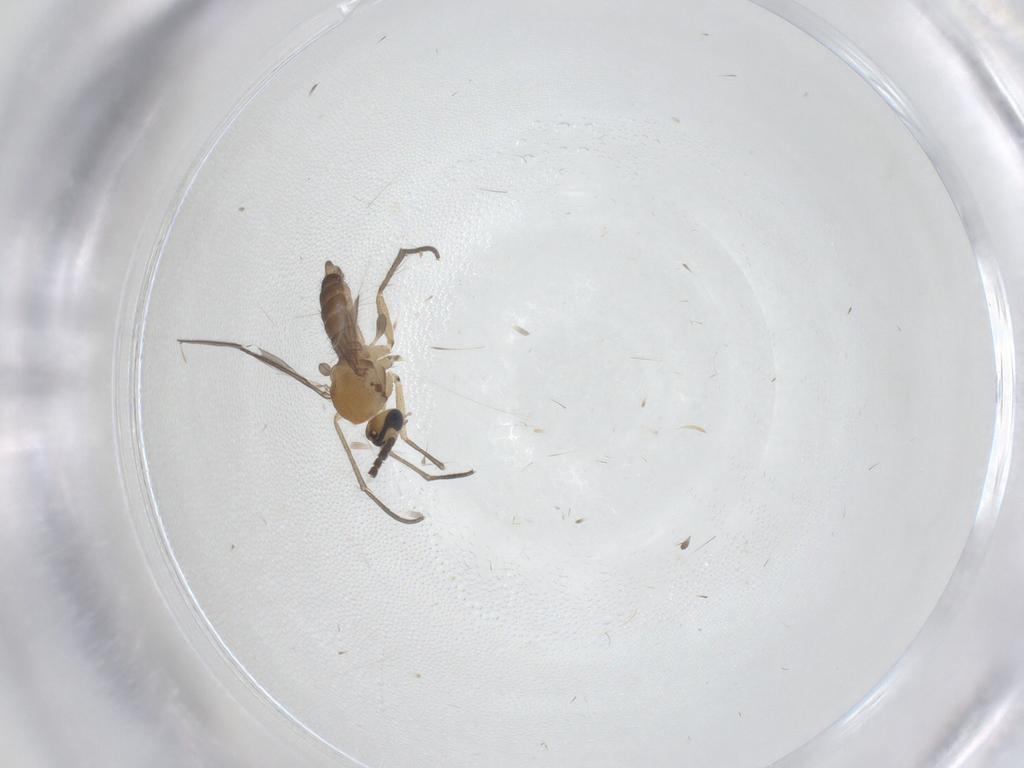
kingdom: Animalia
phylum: Arthropoda
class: Insecta
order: Diptera
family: Sciaridae
